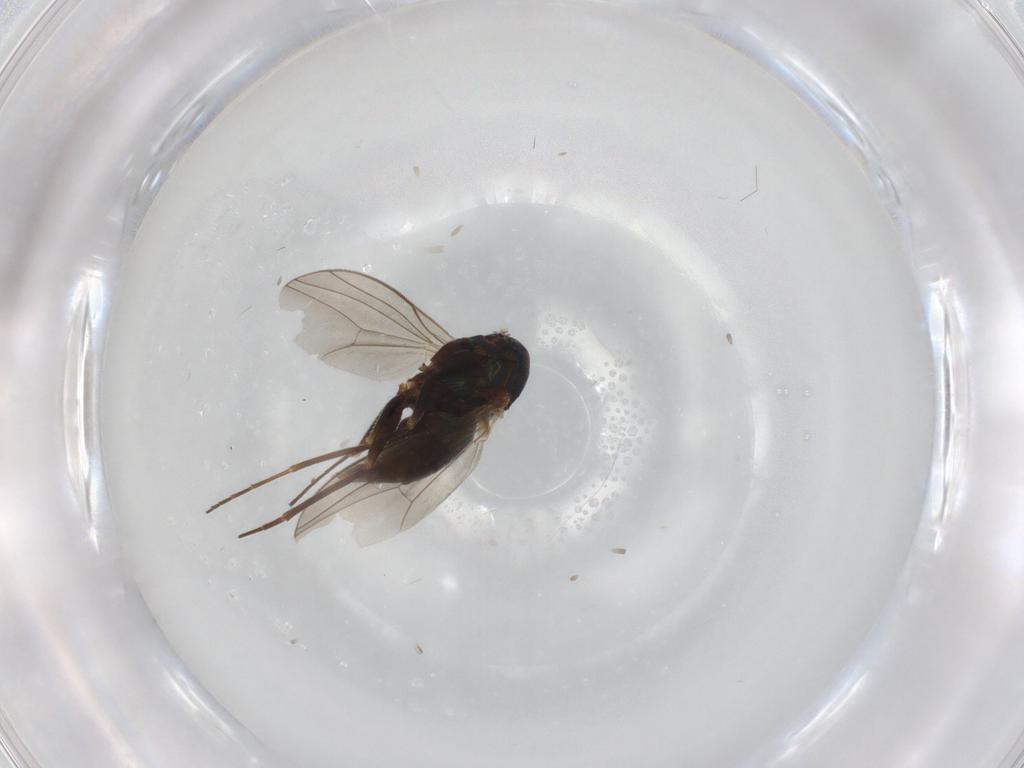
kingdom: Animalia
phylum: Arthropoda
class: Insecta
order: Diptera
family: Dolichopodidae
